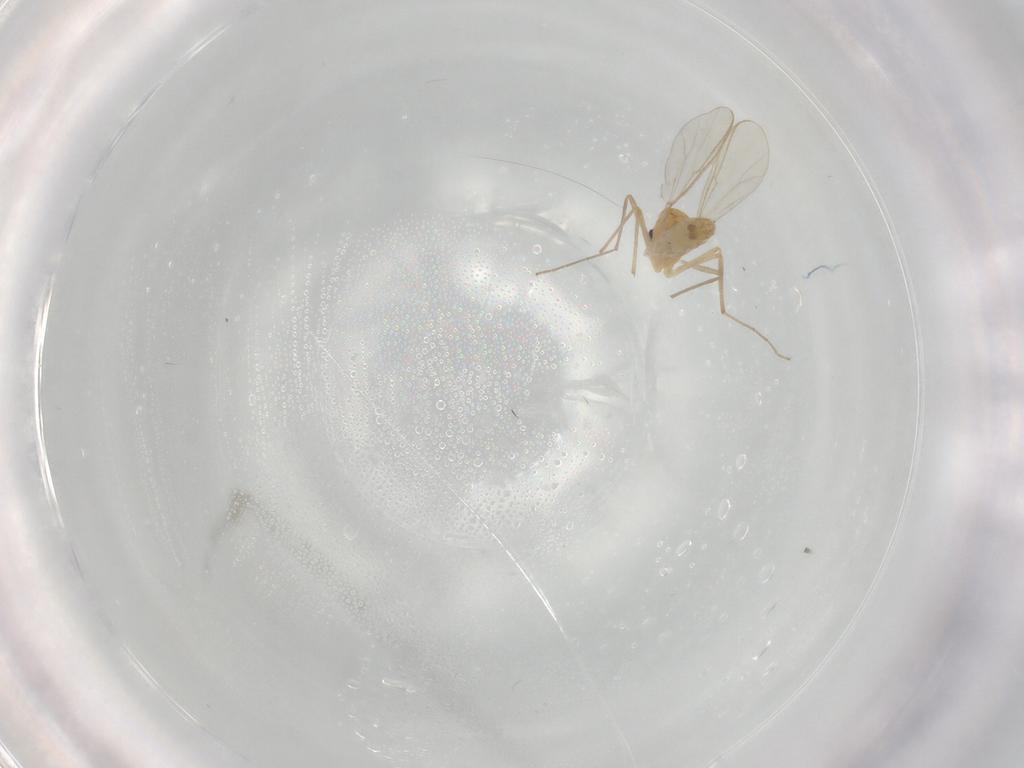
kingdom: Animalia
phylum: Arthropoda
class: Insecta
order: Diptera
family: Chironomidae
